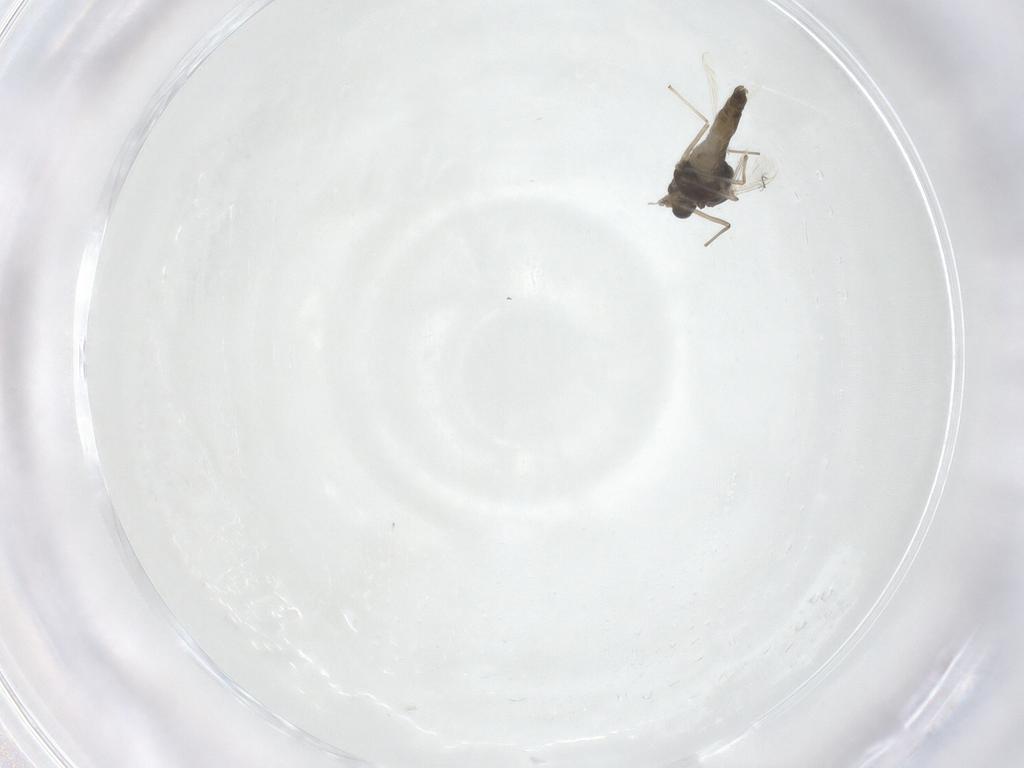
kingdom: Animalia
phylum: Arthropoda
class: Insecta
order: Diptera
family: Chironomidae
